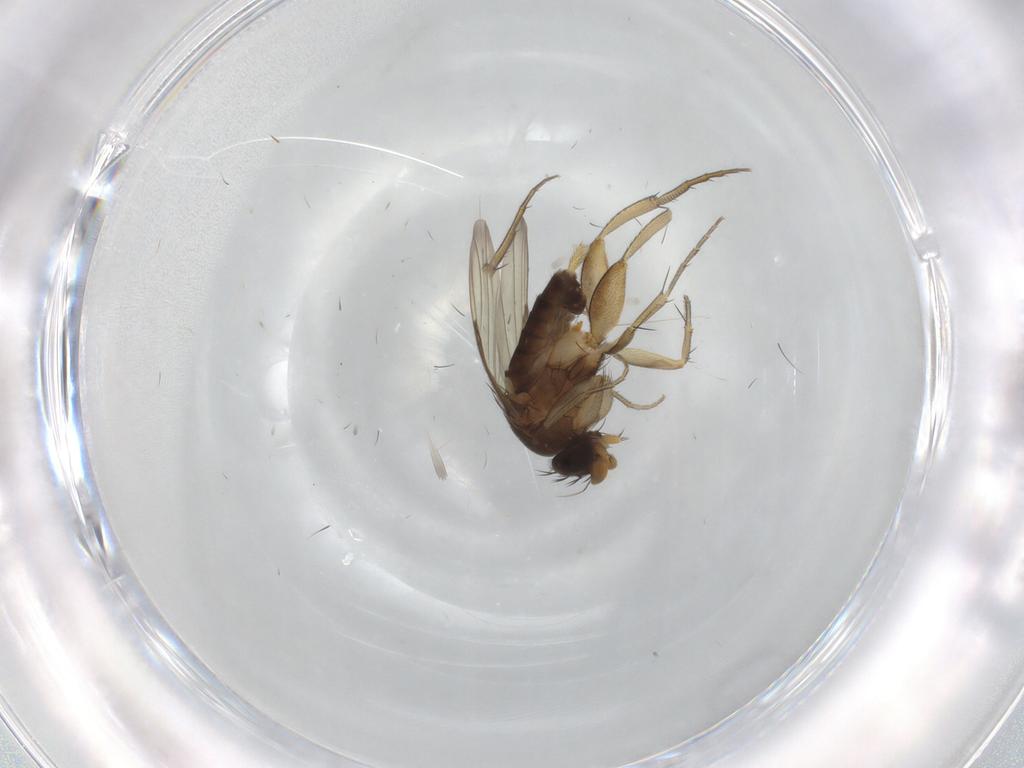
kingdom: Animalia
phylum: Arthropoda
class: Insecta
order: Diptera
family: Phoridae
